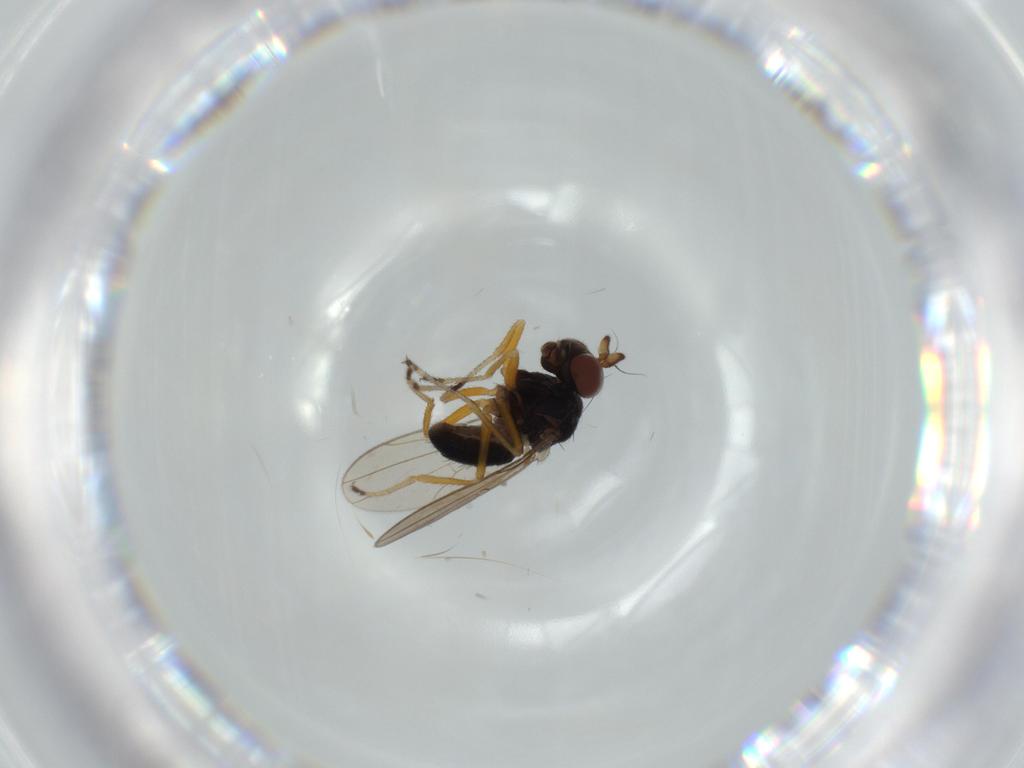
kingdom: Animalia
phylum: Arthropoda
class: Insecta
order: Diptera
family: Ephydridae
